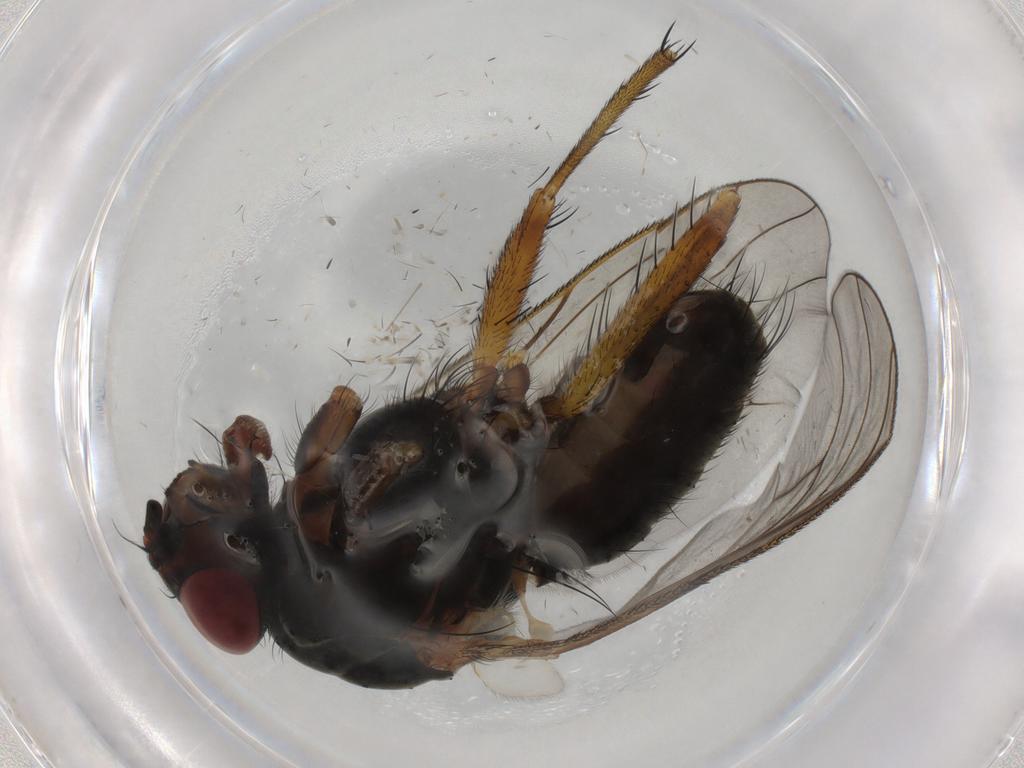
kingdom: Animalia
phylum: Arthropoda
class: Insecta
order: Diptera
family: Anthomyiidae
